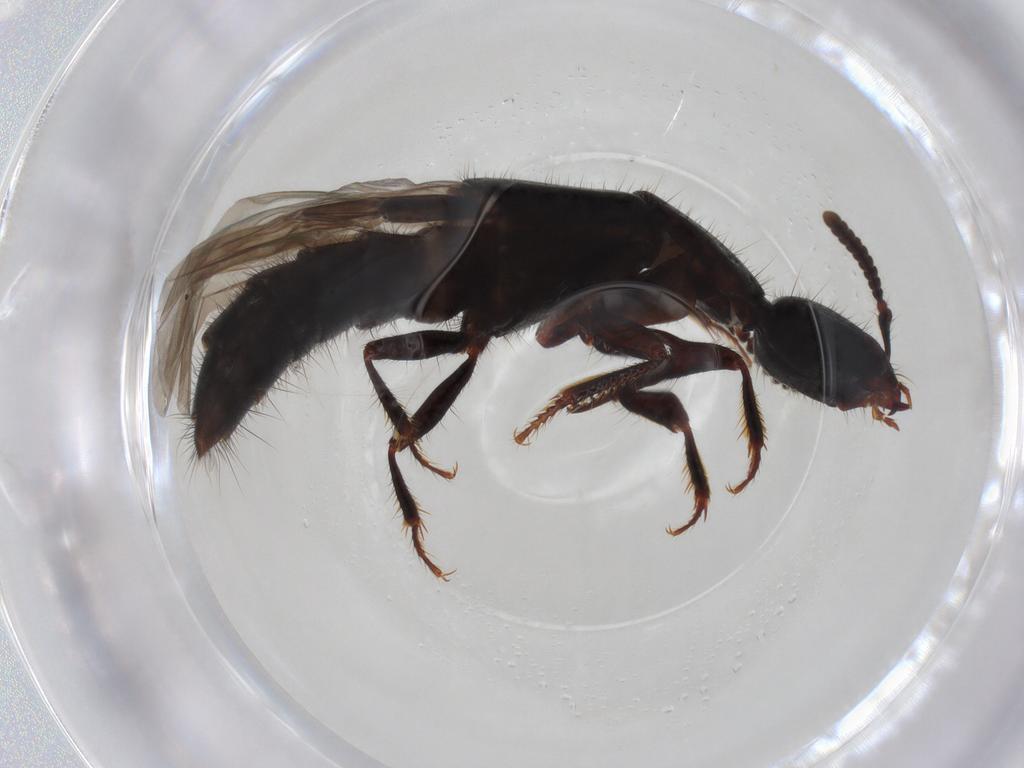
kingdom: Animalia
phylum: Arthropoda
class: Insecta
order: Coleoptera
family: Staphylinidae
